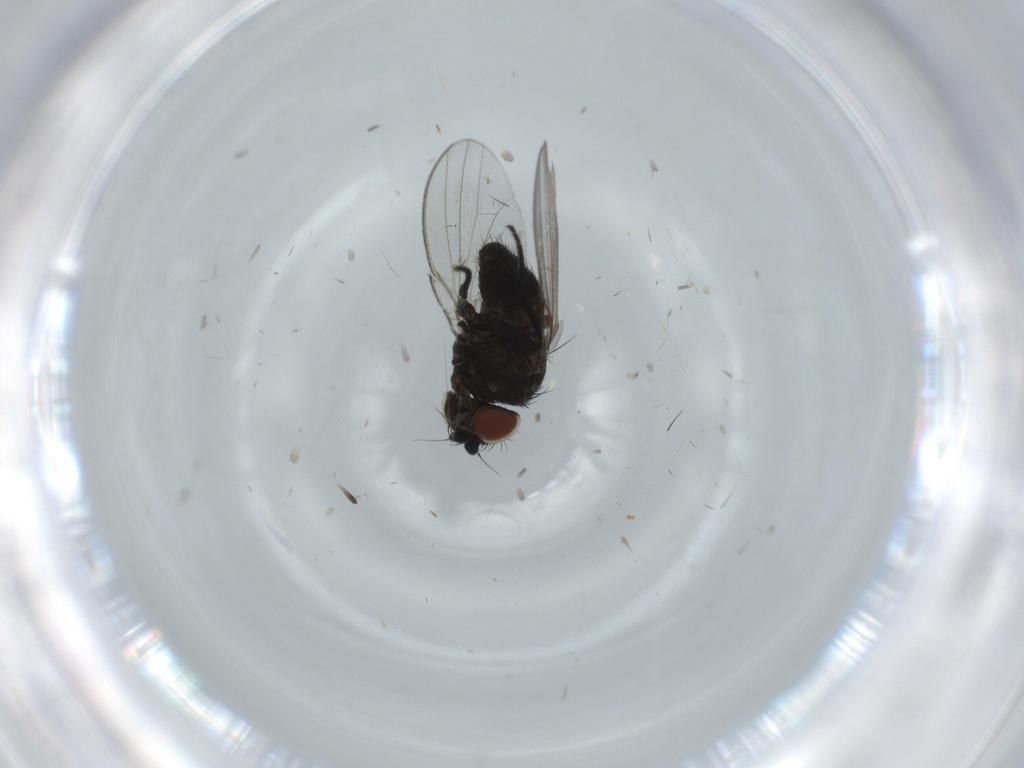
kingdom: Animalia
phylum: Arthropoda
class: Insecta
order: Diptera
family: Milichiidae
